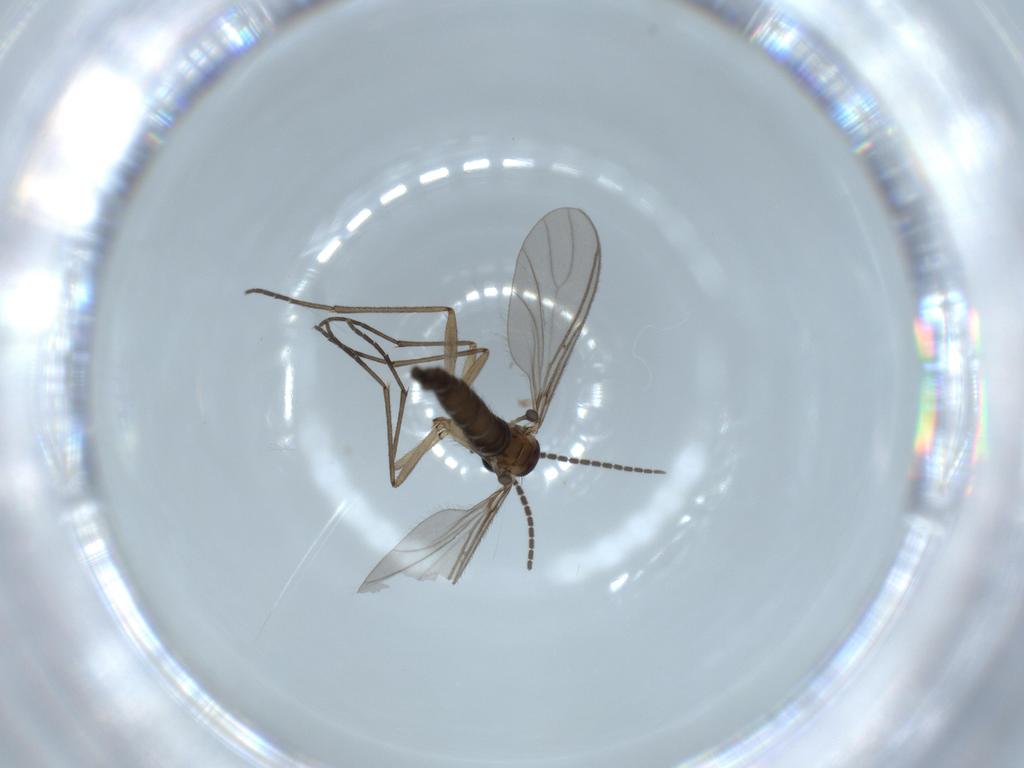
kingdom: Animalia
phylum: Arthropoda
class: Insecta
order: Diptera
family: Sciaridae
